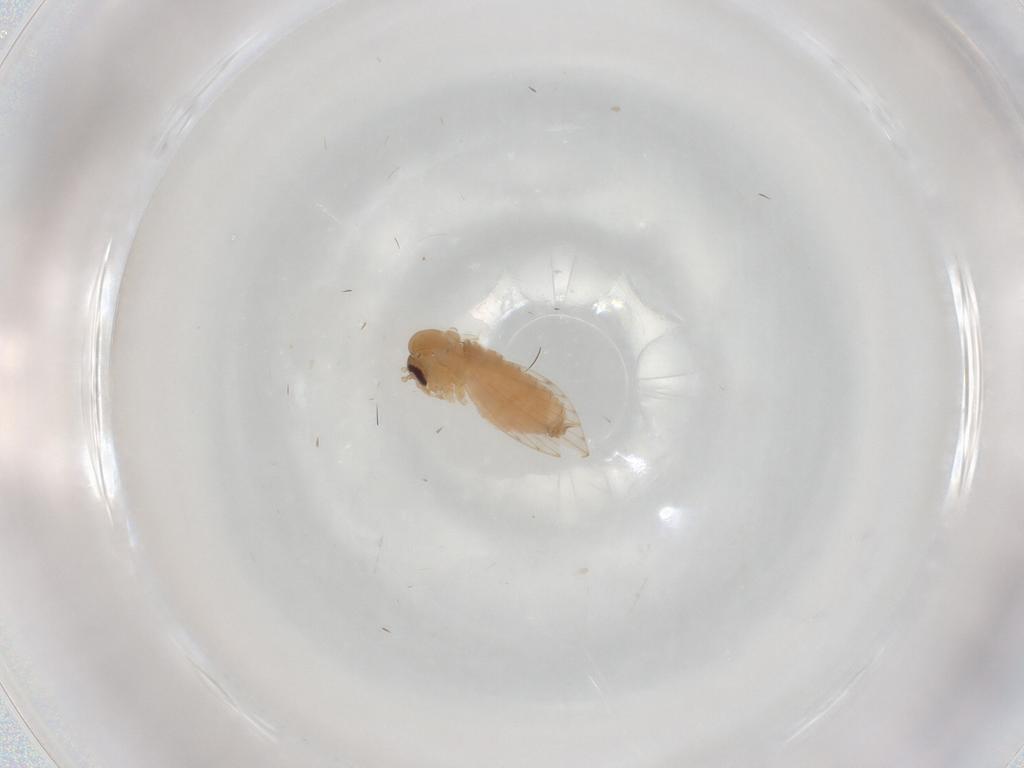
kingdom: Animalia
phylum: Arthropoda
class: Insecta
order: Diptera
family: Psychodidae
